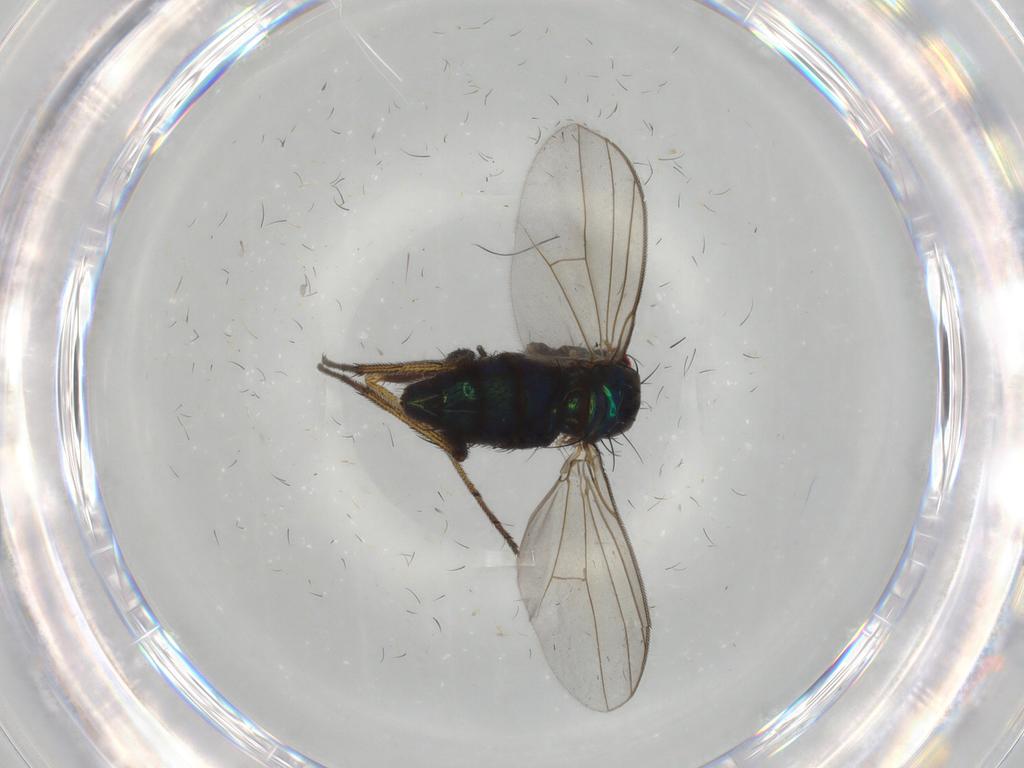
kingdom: Animalia
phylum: Arthropoda
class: Insecta
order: Diptera
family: Dolichopodidae
